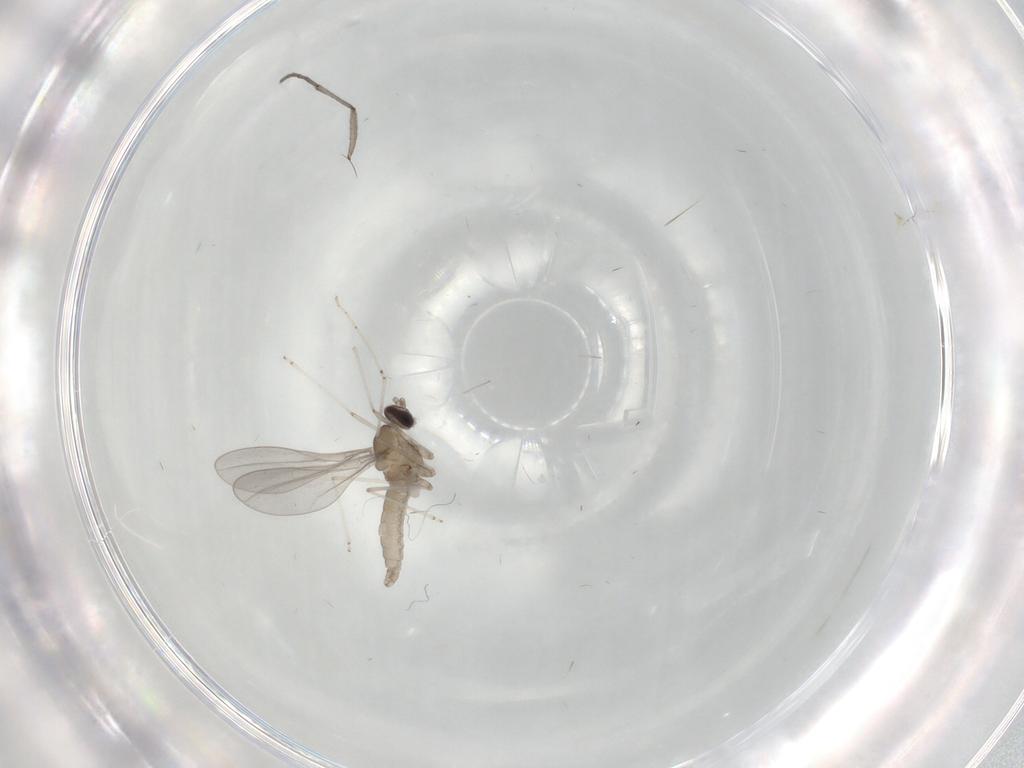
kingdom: Animalia
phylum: Arthropoda
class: Insecta
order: Diptera
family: Sciaridae
